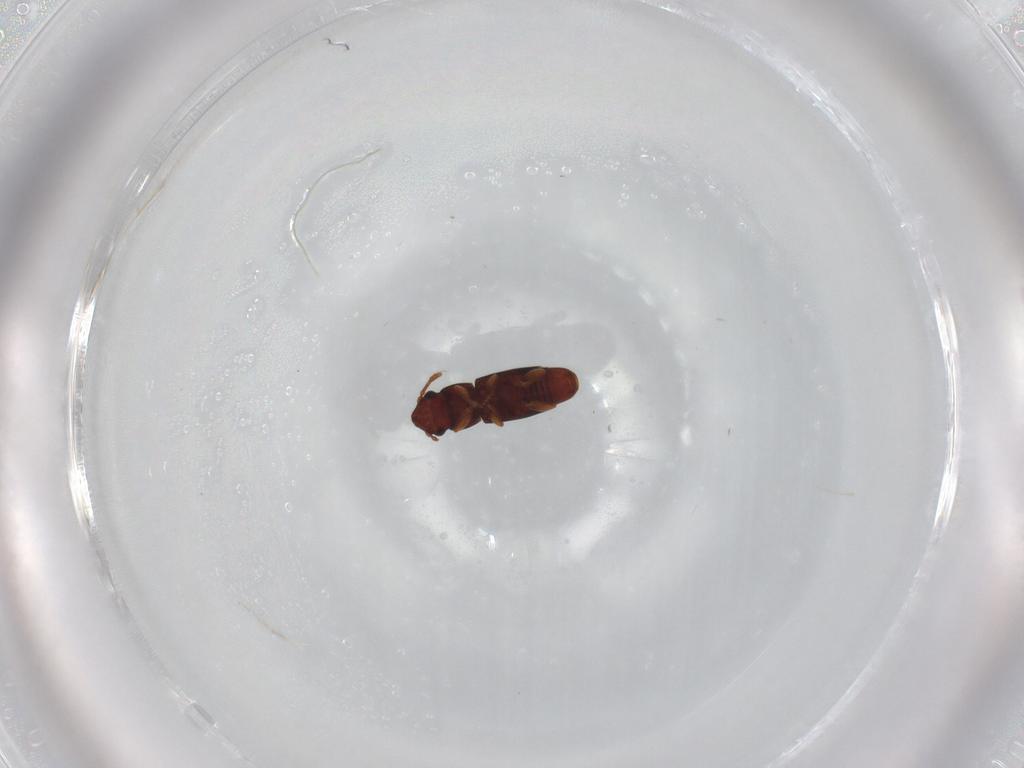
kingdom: Animalia
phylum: Arthropoda
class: Insecta
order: Coleoptera
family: Smicripidae
